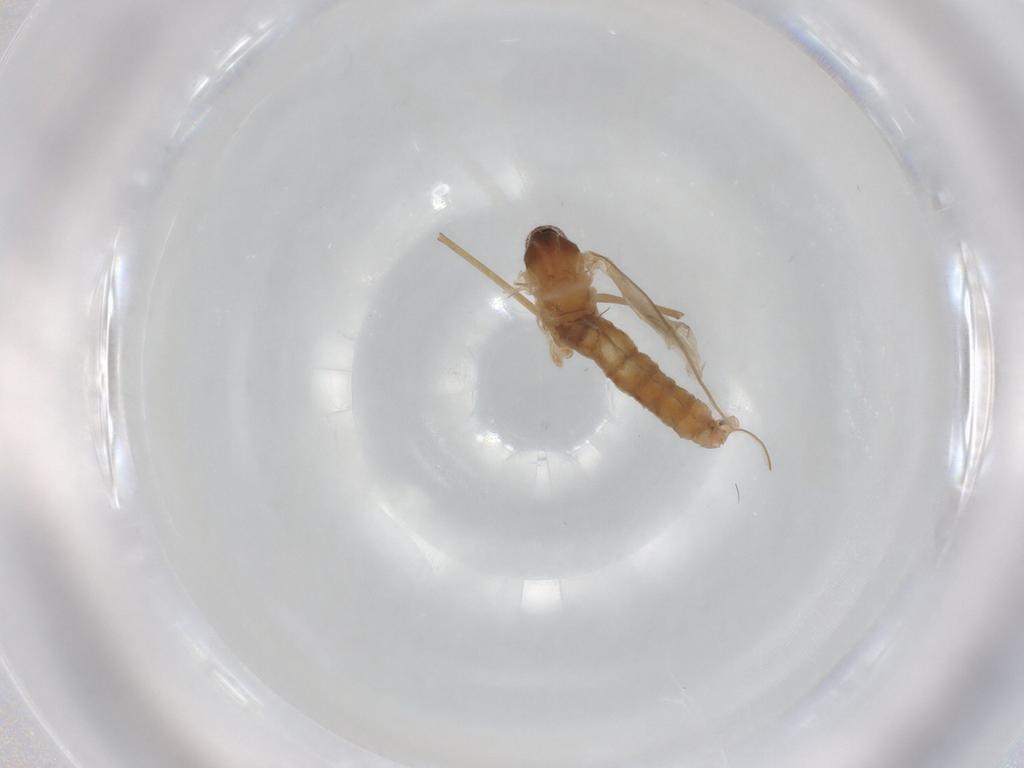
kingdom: Animalia
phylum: Arthropoda
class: Insecta
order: Diptera
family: Cecidomyiidae
